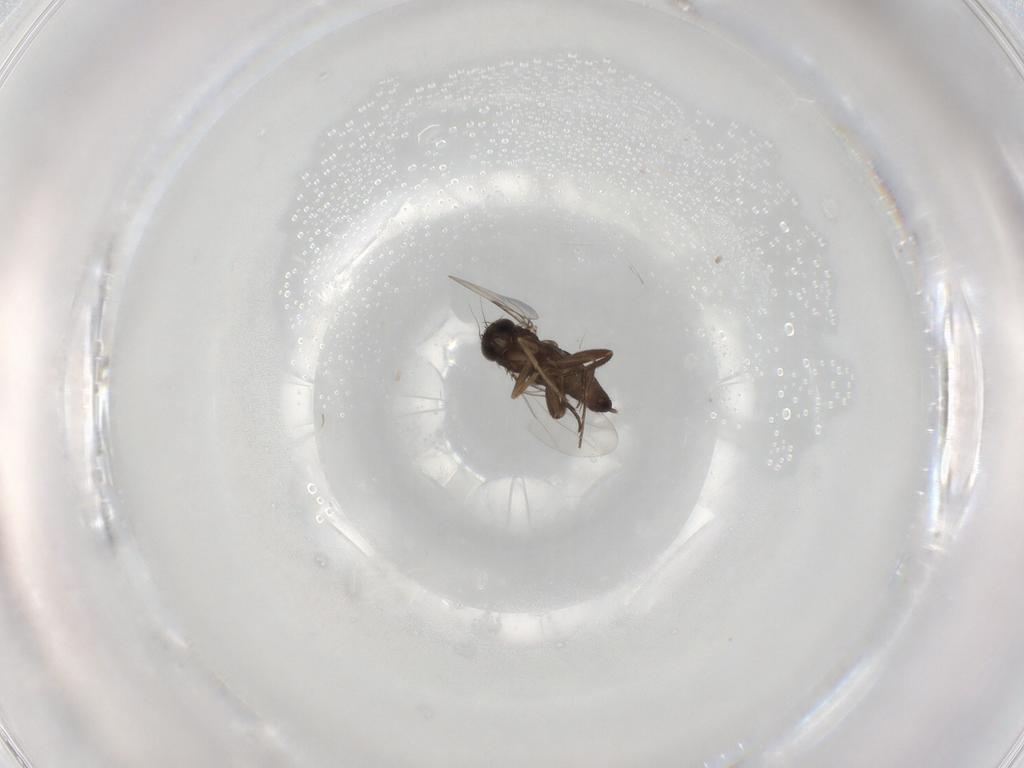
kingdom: Animalia
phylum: Arthropoda
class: Insecta
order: Diptera
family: Phoridae
